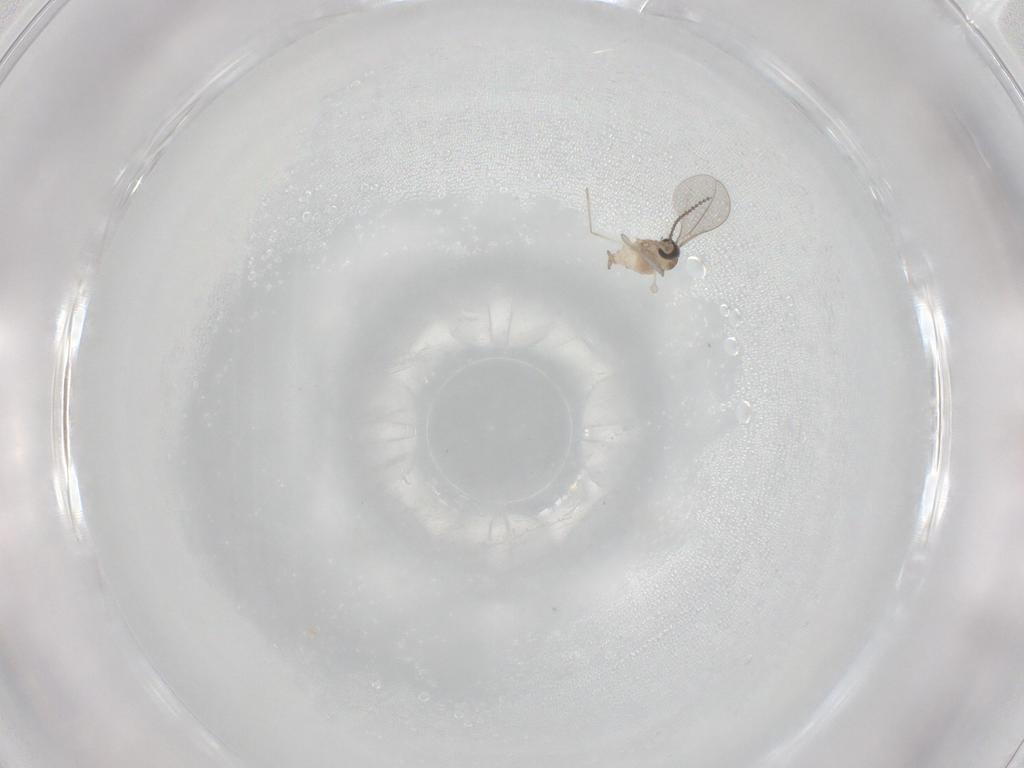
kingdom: Animalia
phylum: Arthropoda
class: Insecta
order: Diptera
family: Cecidomyiidae
